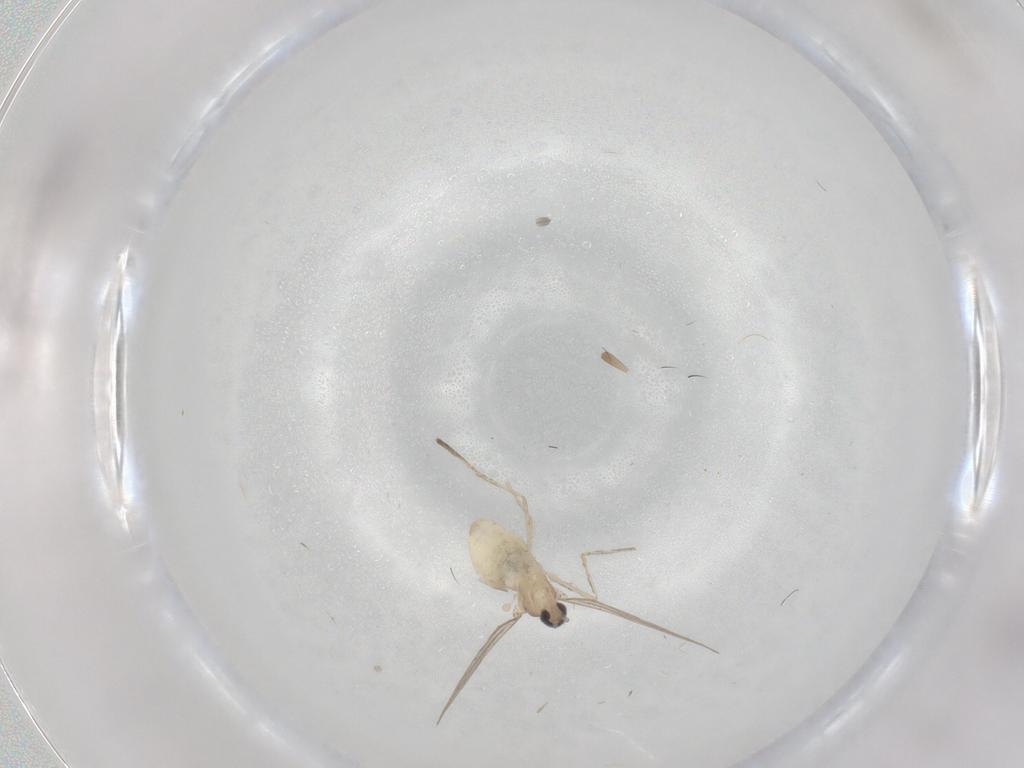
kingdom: Animalia
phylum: Arthropoda
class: Insecta
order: Diptera
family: Cecidomyiidae
